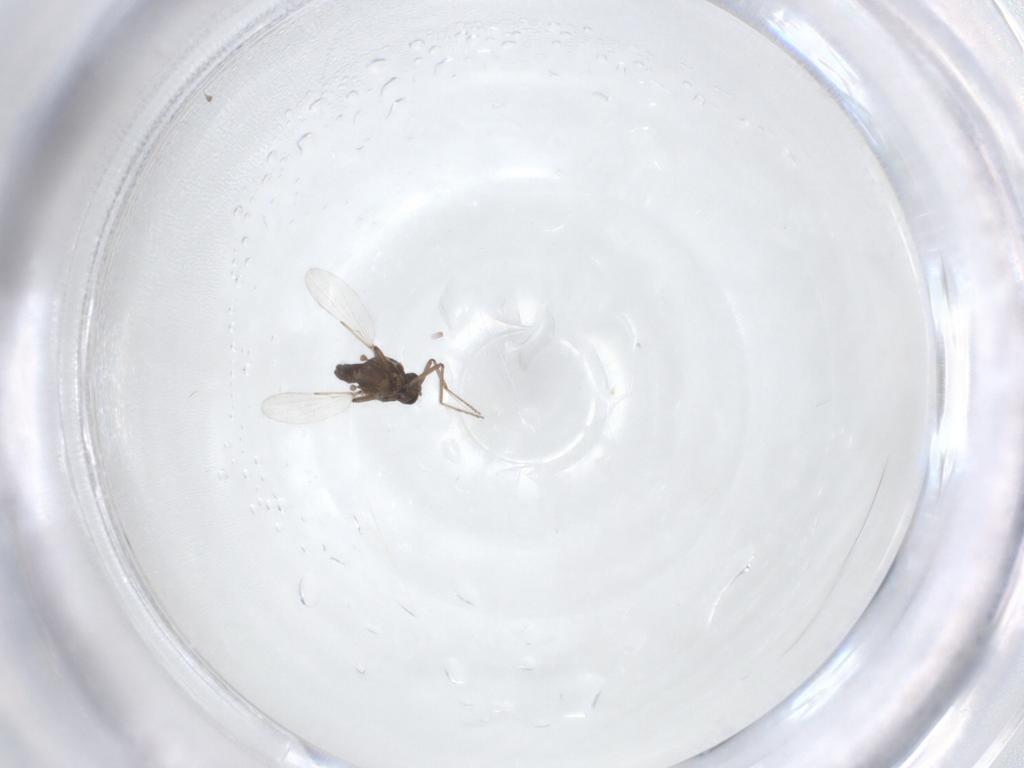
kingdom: Animalia
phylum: Arthropoda
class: Insecta
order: Diptera
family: Ceratopogonidae
